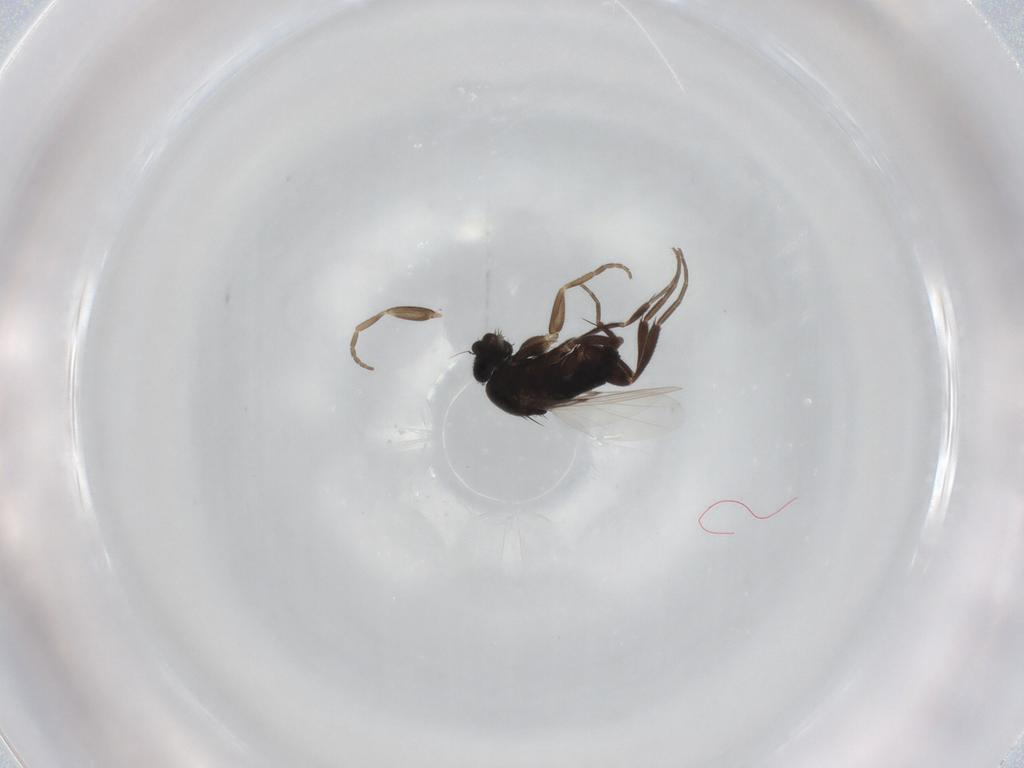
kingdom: Animalia
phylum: Arthropoda
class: Insecta
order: Diptera
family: Phoridae
